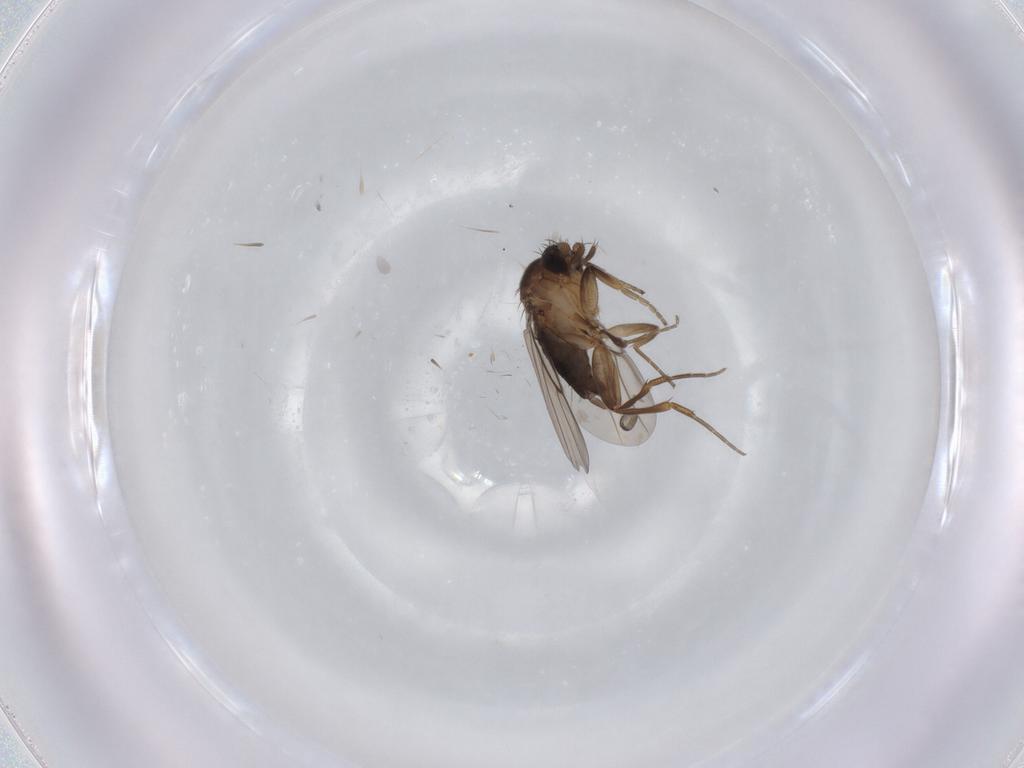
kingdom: Animalia
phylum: Arthropoda
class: Insecta
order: Diptera
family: Phoridae
